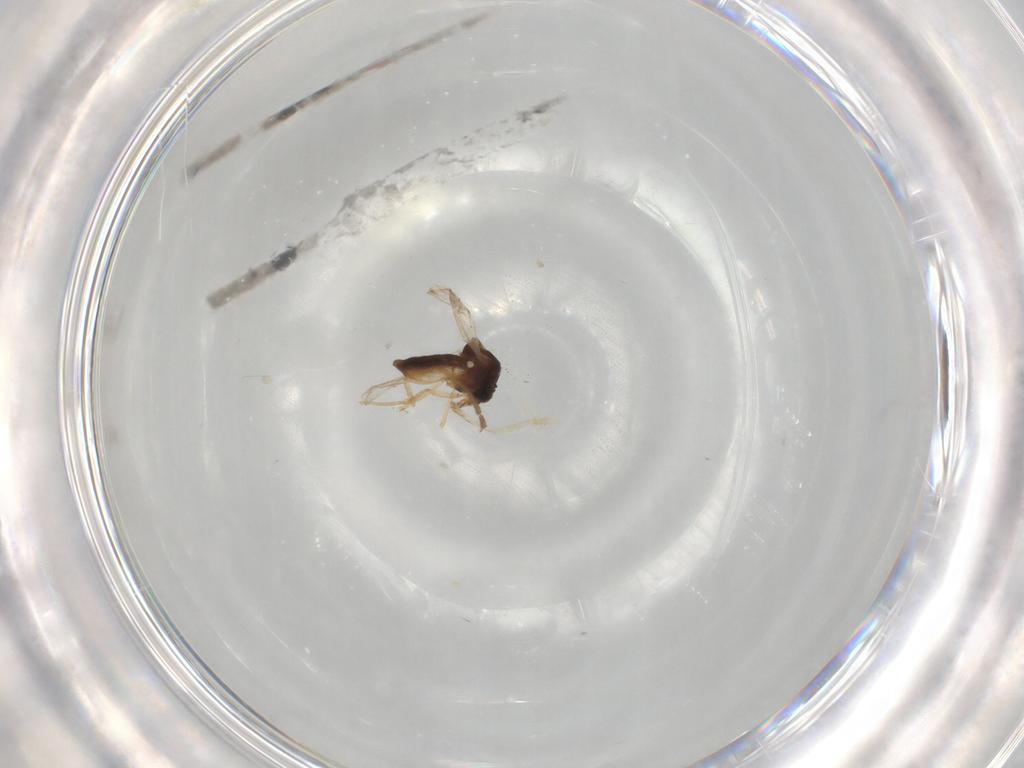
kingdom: Animalia
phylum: Arthropoda
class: Insecta
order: Diptera
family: Ceratopogonidae
